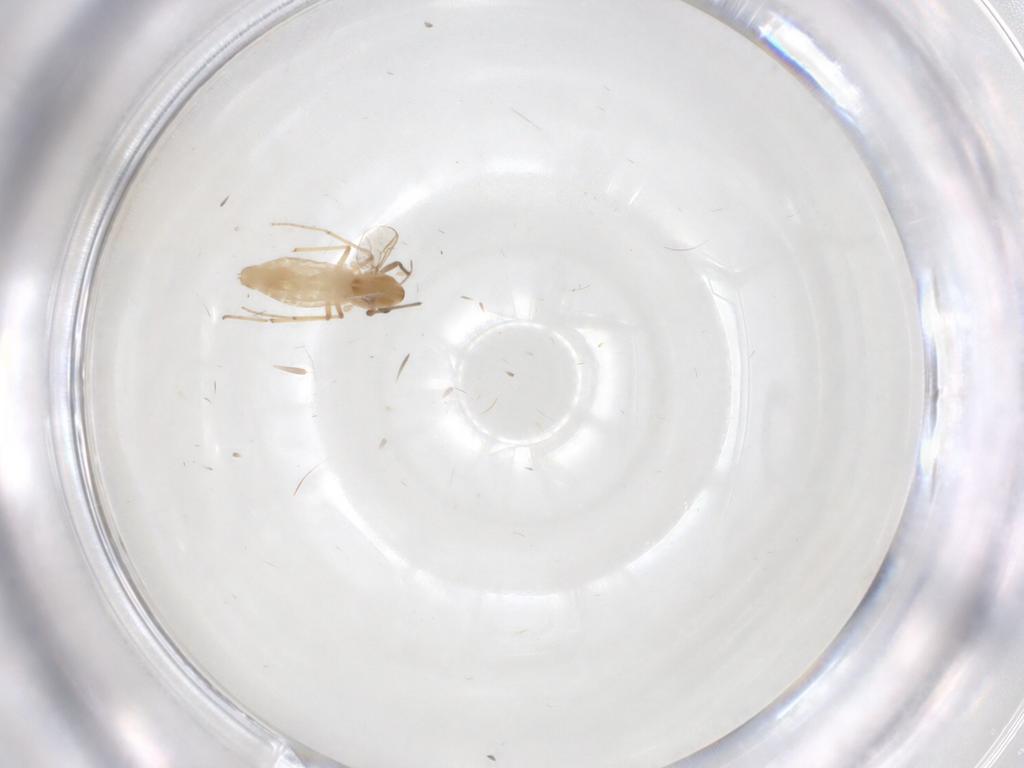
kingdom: Animalia
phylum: Arthropoda
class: Insecta
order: Diptera
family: Chironomidae
